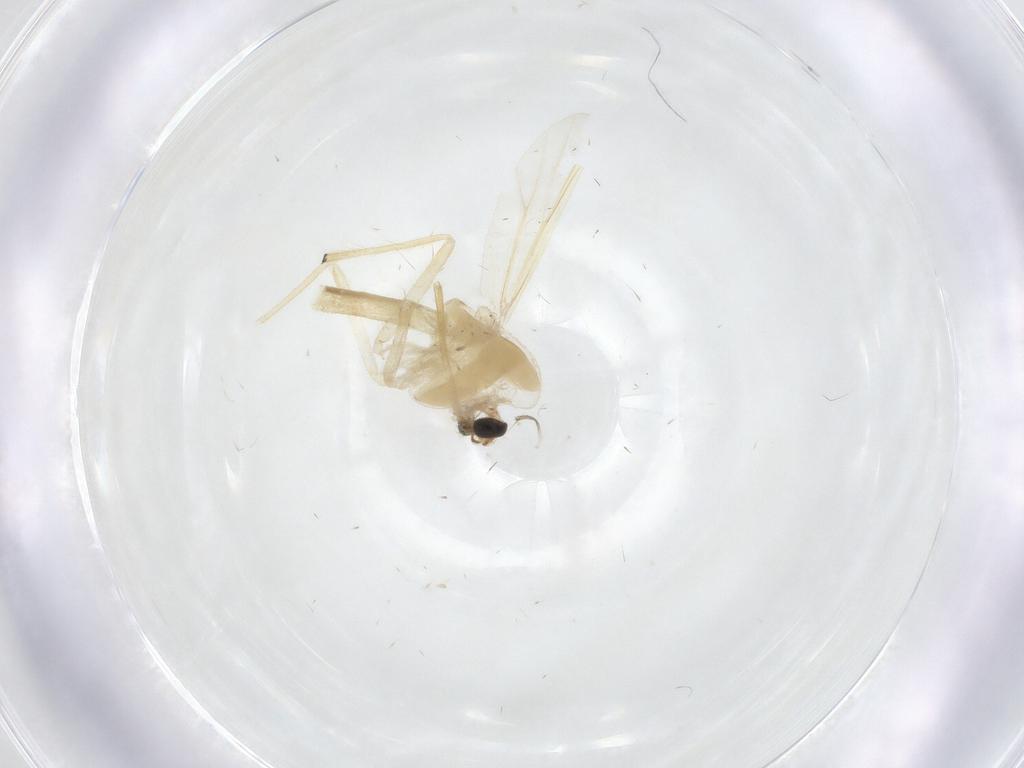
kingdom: Animalia
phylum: Arthropoda
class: Insecta
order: Diptera
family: Chironomidae
